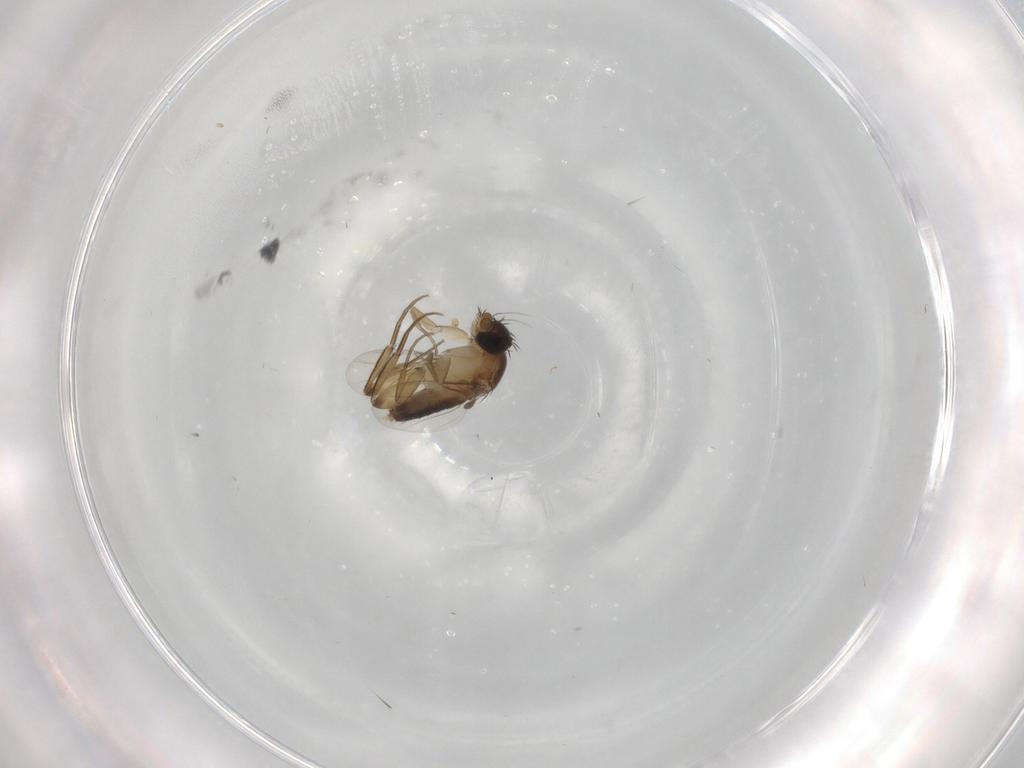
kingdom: Animalia
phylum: Arthropoda
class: Insecta
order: Diptera
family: Phoridae
